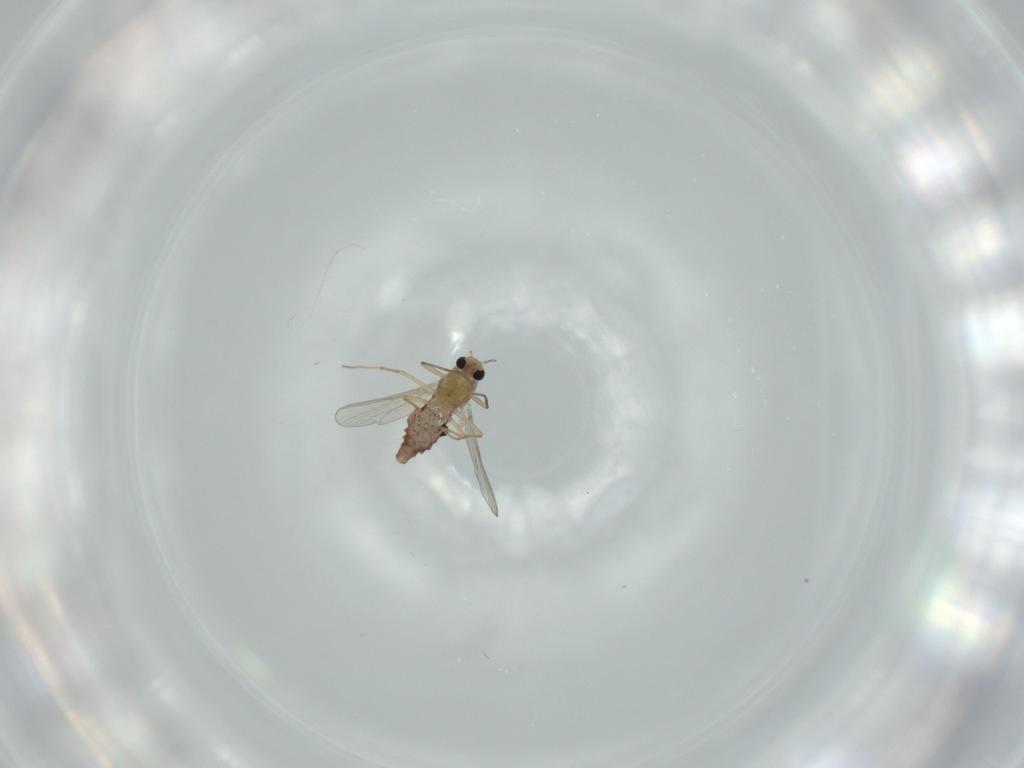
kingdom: Animalia
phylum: Arthropoda
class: Insecta
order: Diptera
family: Chironomidae
